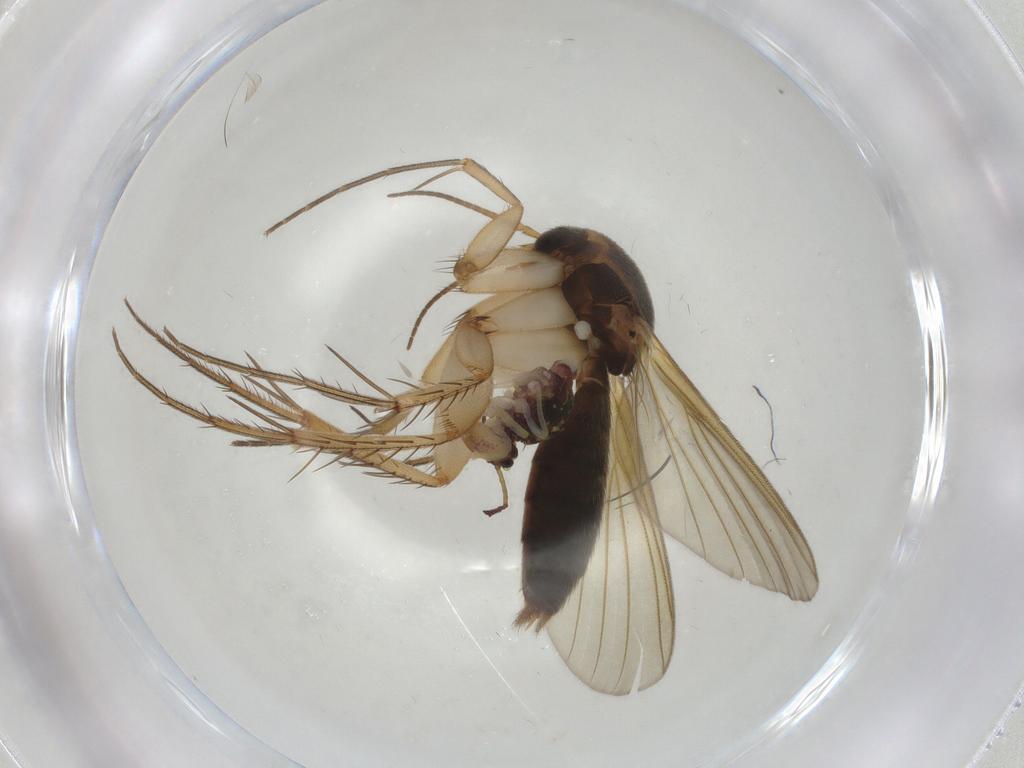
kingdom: Animalia
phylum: Arthropoda
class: Insecta
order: Diptera
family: Mycetophilidae
